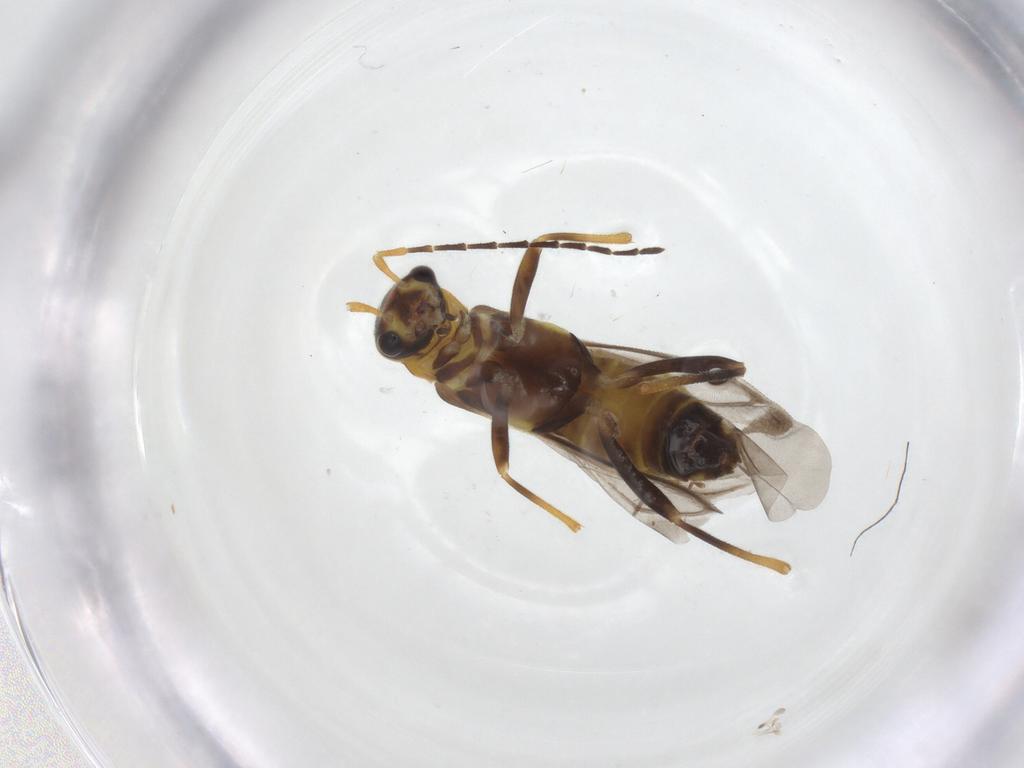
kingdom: Animalia
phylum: Arthropoda
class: Insecta
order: Coleoptera
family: Cantharidae
